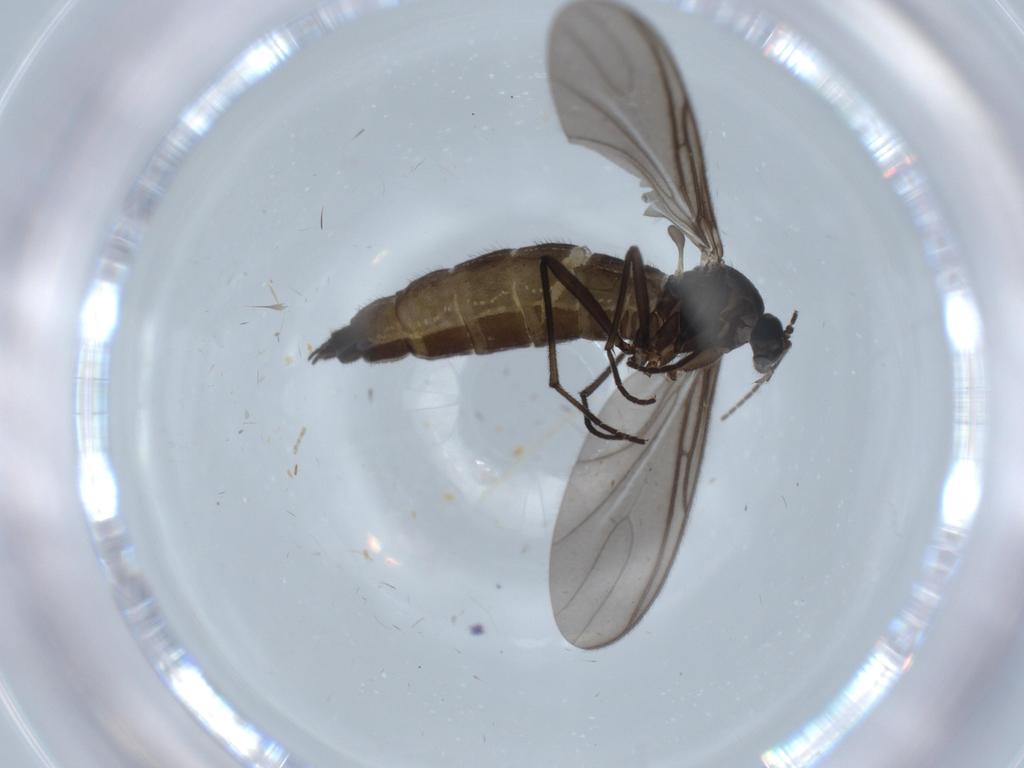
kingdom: Animalia
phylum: Arthropoda
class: Insecta
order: Diptera
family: Sciaridae
